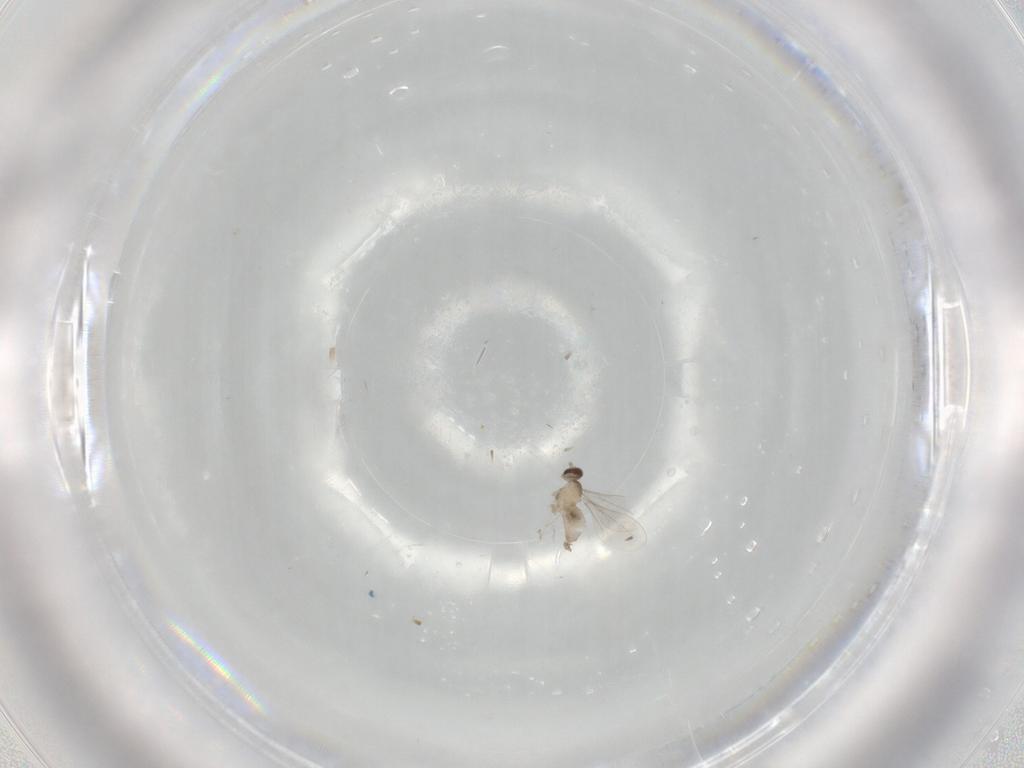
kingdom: Animalia
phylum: Arthropoda
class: Insecta
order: Diptera
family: Cecidomyiidae
